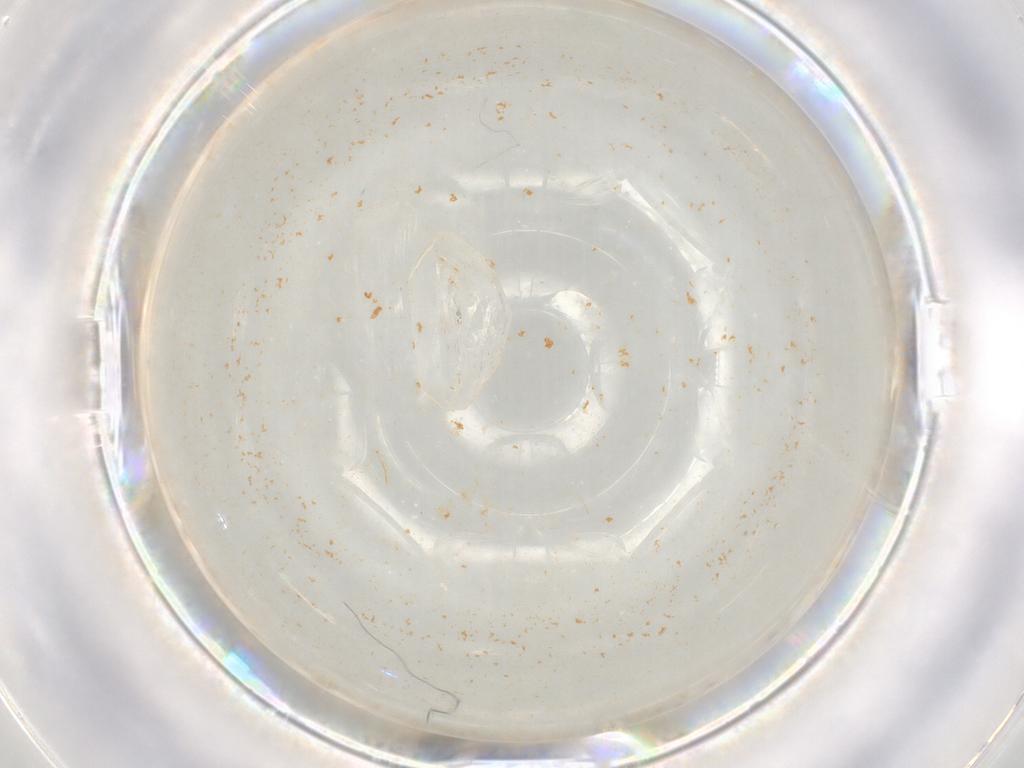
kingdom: Animalia
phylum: Arthropoda
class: Insecta
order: Hymenoptera
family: Mymaridae
